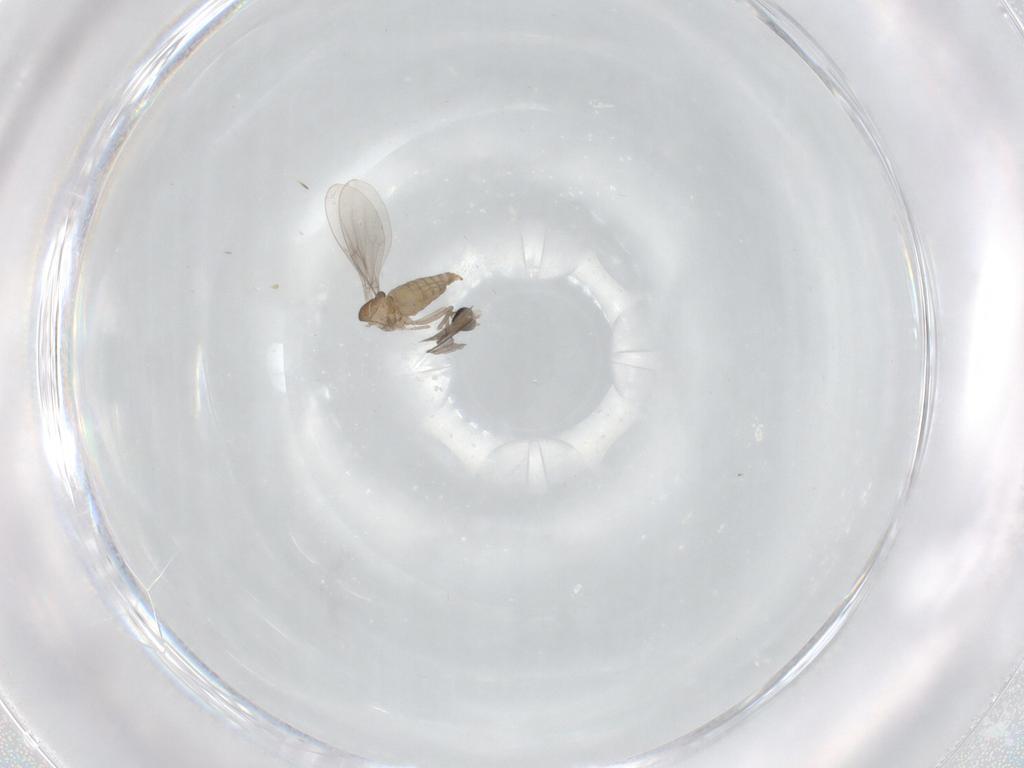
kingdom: Animalia
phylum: Arthropoda
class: Insecta
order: Diptera
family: Cecidomyiidae
